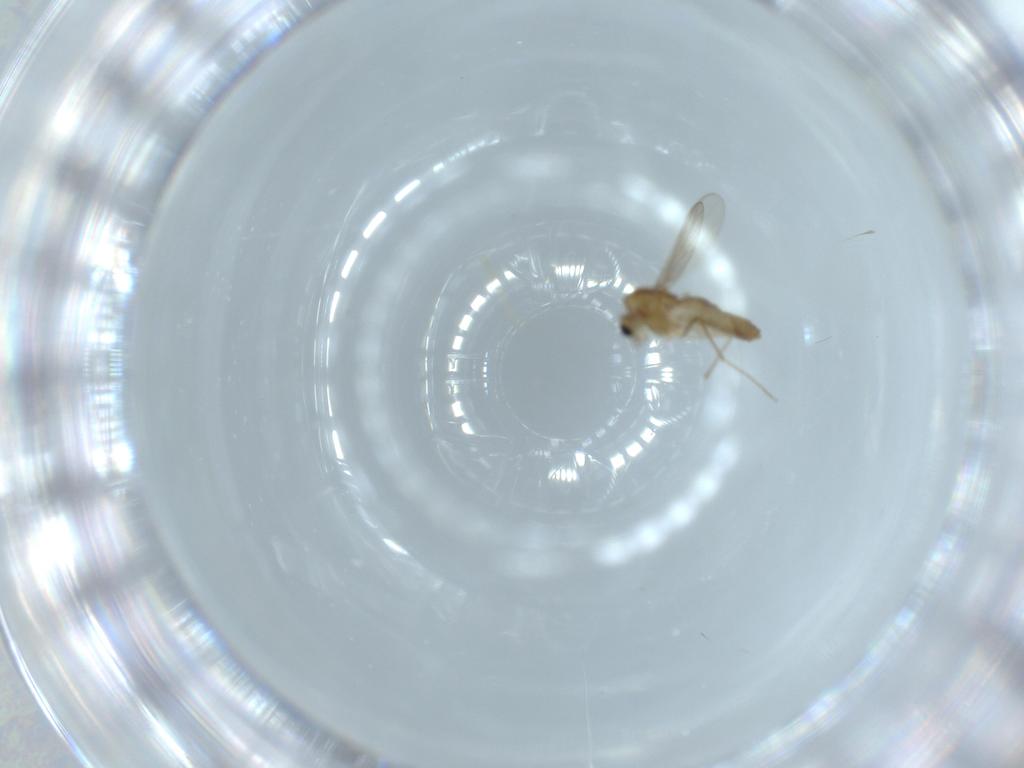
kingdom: Animalia
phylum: Arthropoda
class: Insecta
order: Diptera
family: Chironomidae
